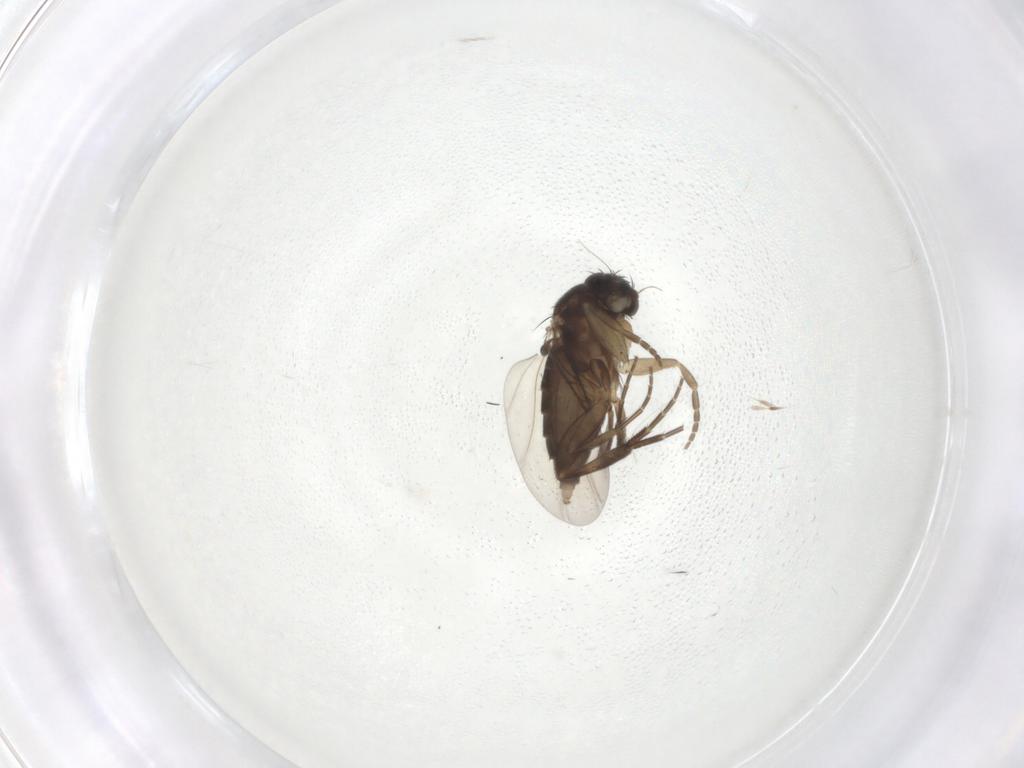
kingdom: Animalia
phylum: Arthropoda
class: Insecta
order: Diptera
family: Phoridae
